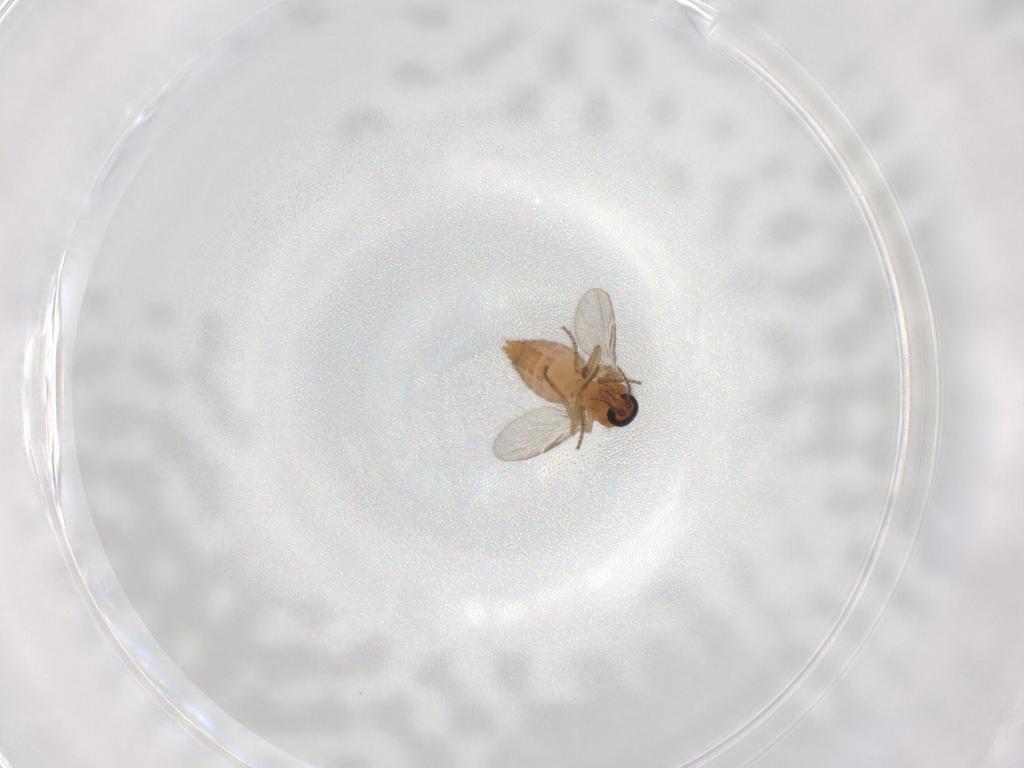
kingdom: Animalia
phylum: Arthropoda
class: Insecta
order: Diptera
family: Ceratopogonidae
